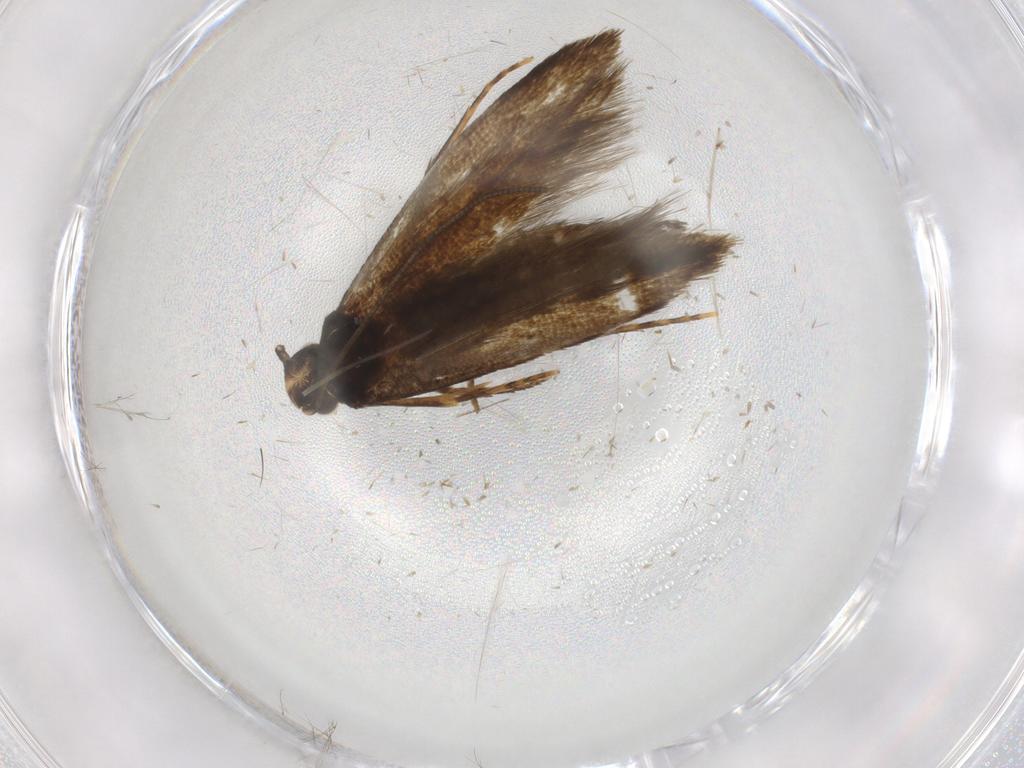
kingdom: Animalia
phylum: Arthropoda
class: Insecta
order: Lepidoptera
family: Tineidae
